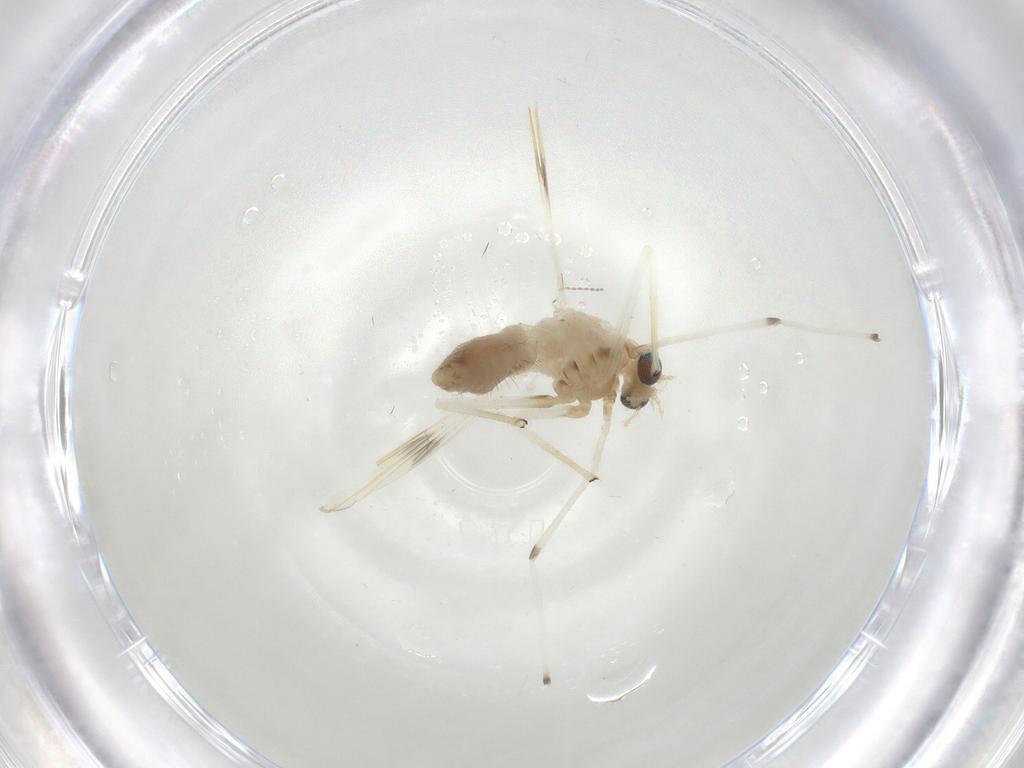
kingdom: Animalia
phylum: Arthropoda
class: Insecta
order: Diptera
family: Chironomidae
